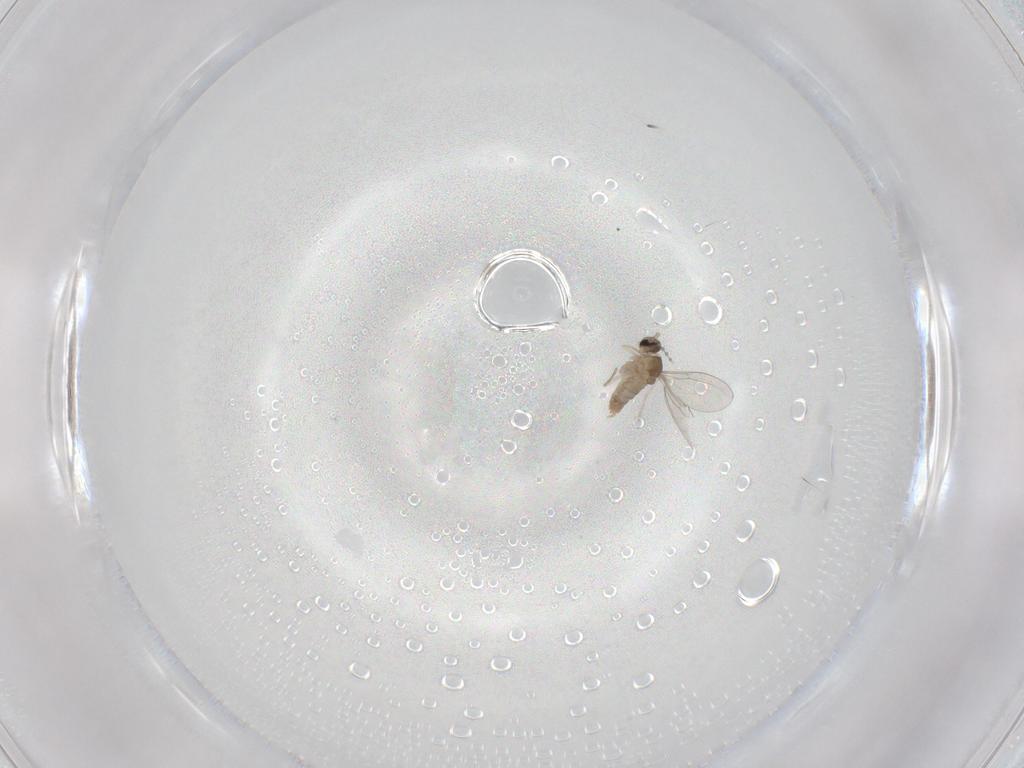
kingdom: Animalia
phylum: Arthropoda
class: Insecta
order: Diptera
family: Cecidomyiidae
